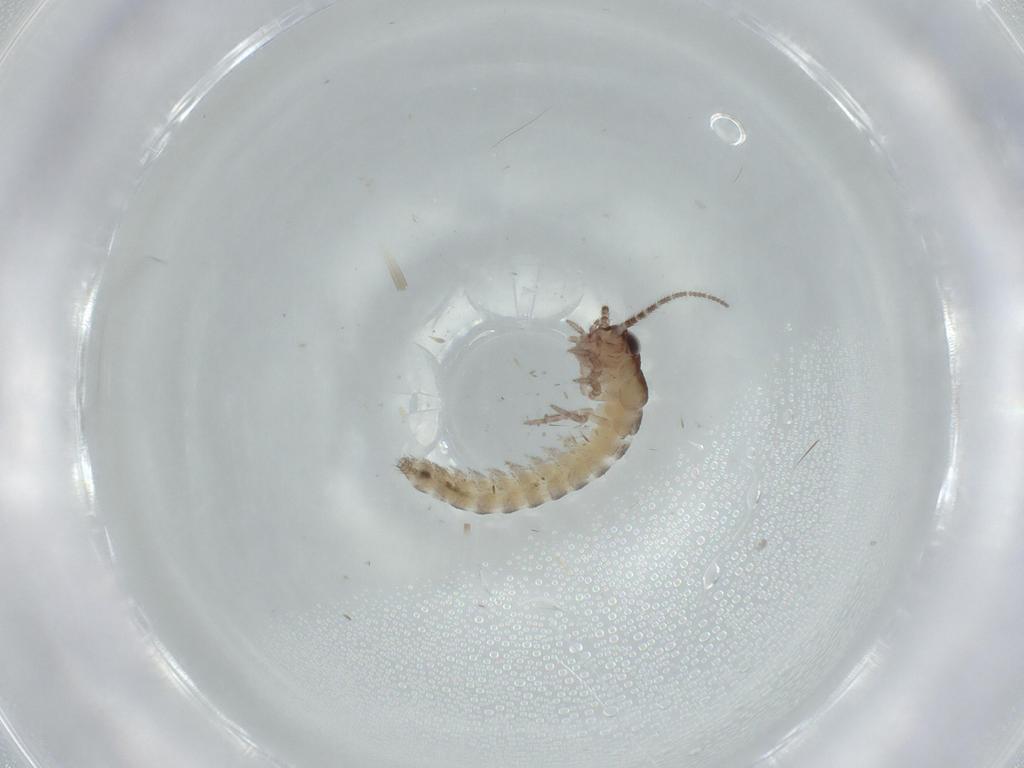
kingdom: Animalia
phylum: Arthropoda
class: Insecta
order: Archaeognatha
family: Machilidae
